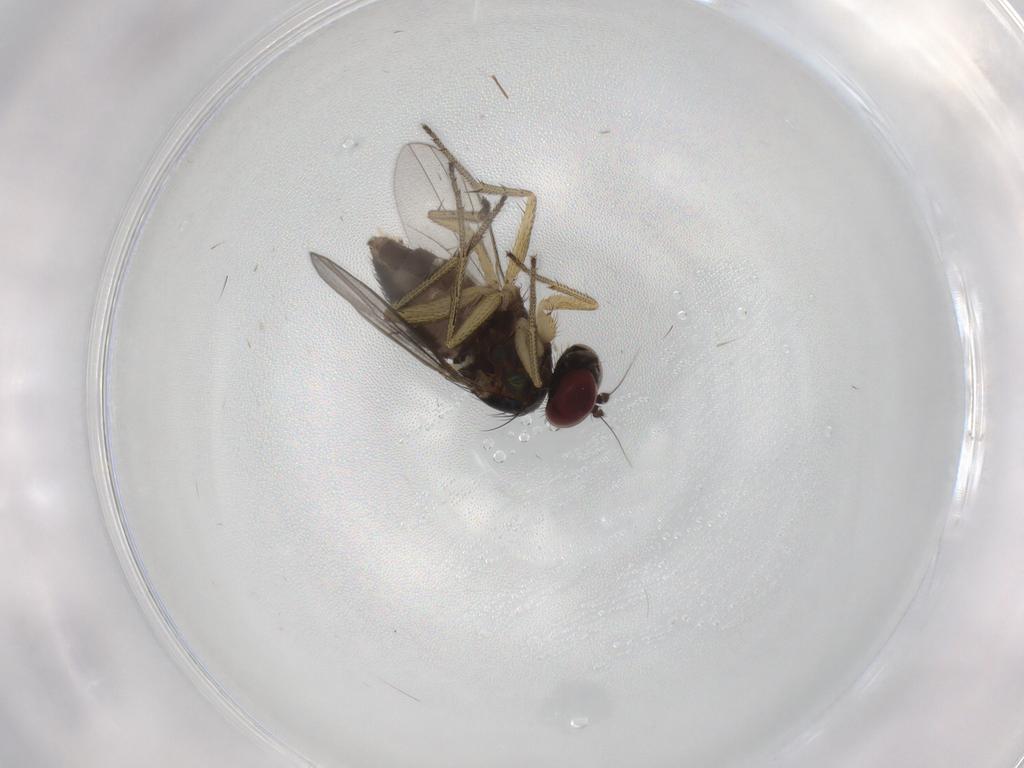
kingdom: Animalia
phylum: Arthropoda
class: Insecta
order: Diptera
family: Dolichopodidae
